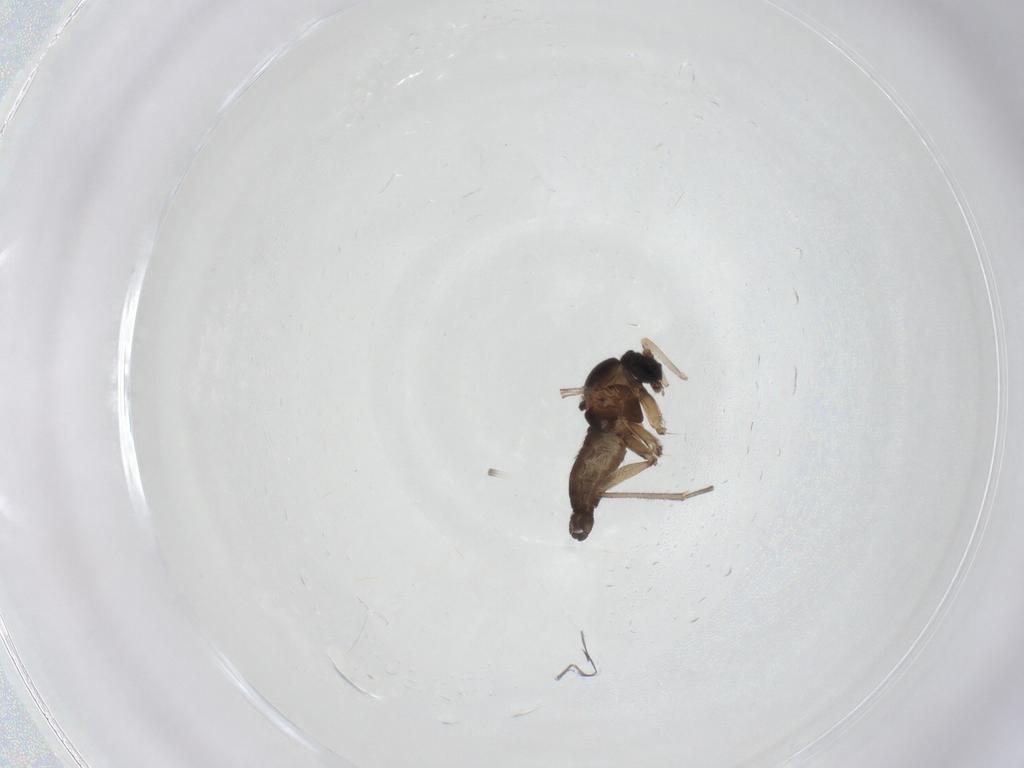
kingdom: Animalia
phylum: Arthropoda
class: Insecta
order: Diptera
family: Sciaridae
